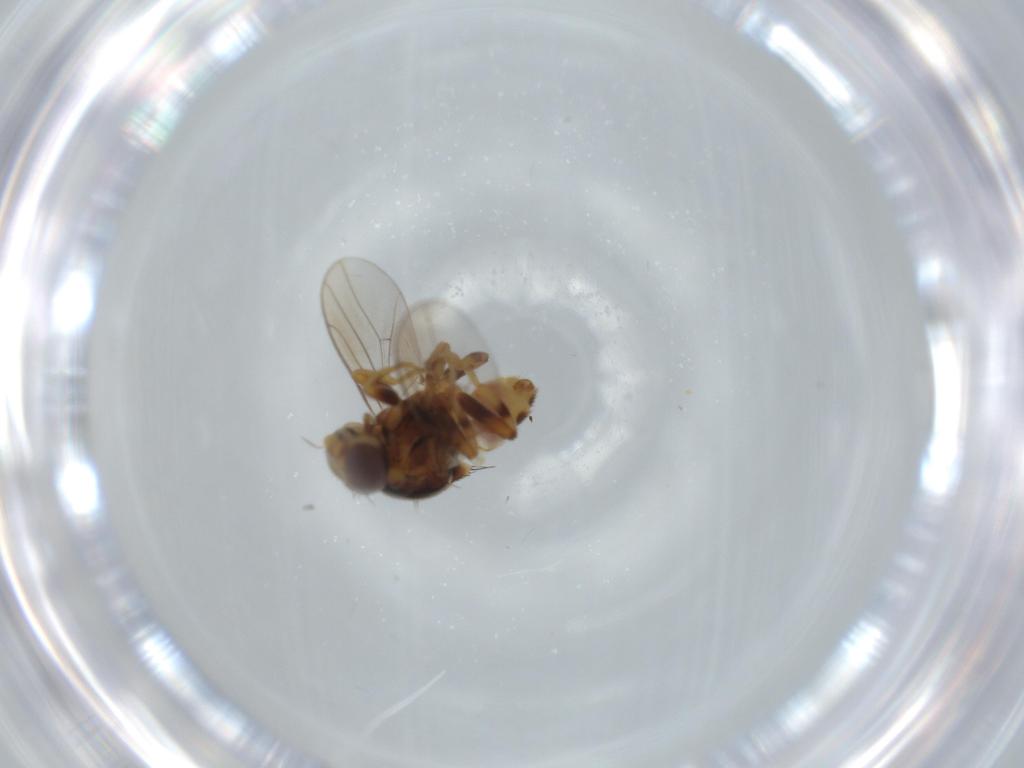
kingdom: Animalia
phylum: Arthropoda
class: Insecta
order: Diptera
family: Chloropidae
